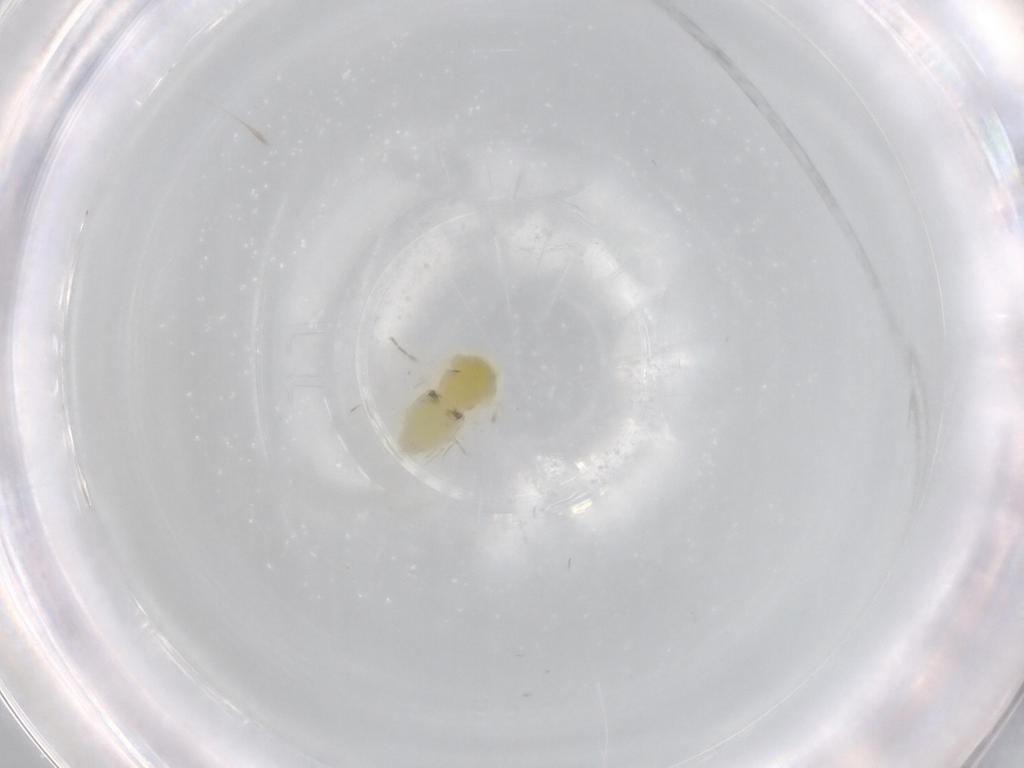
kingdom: Animalia
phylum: Arthropoda
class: Insecta
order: Hemiptera
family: Aleyrodidae
